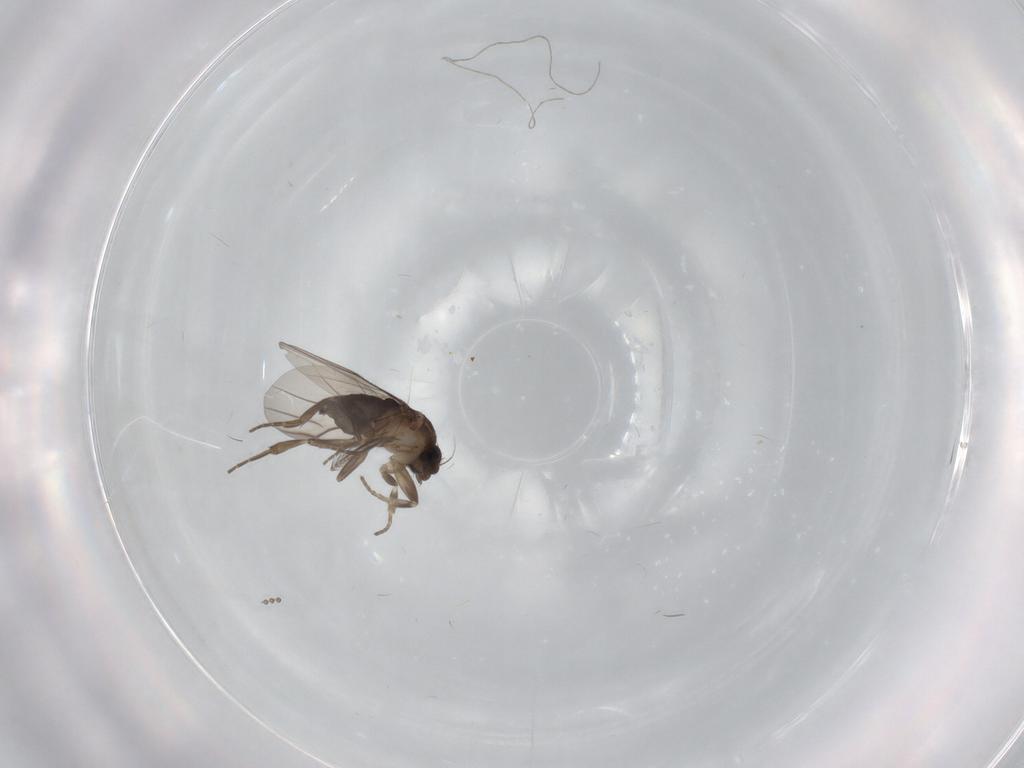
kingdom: Animalia
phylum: Arthropoda
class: Insecta
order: Diptera
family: Phoridae
